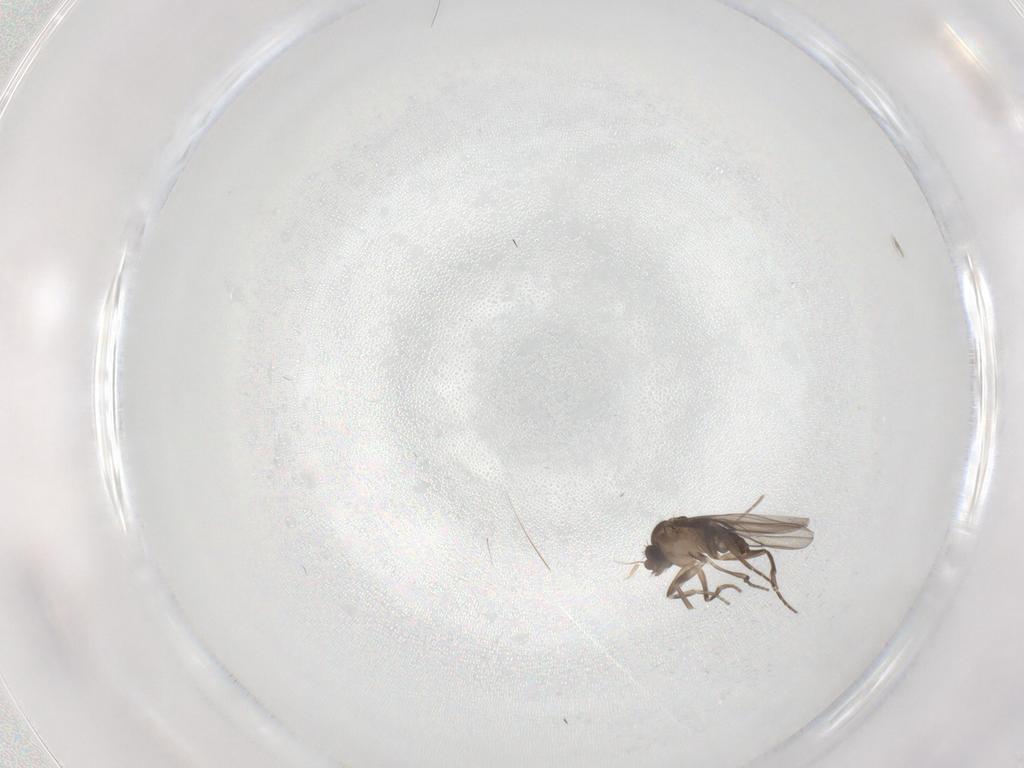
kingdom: Animalia
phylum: Arthropoda
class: Insecta
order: Diptera
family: Phoridae
